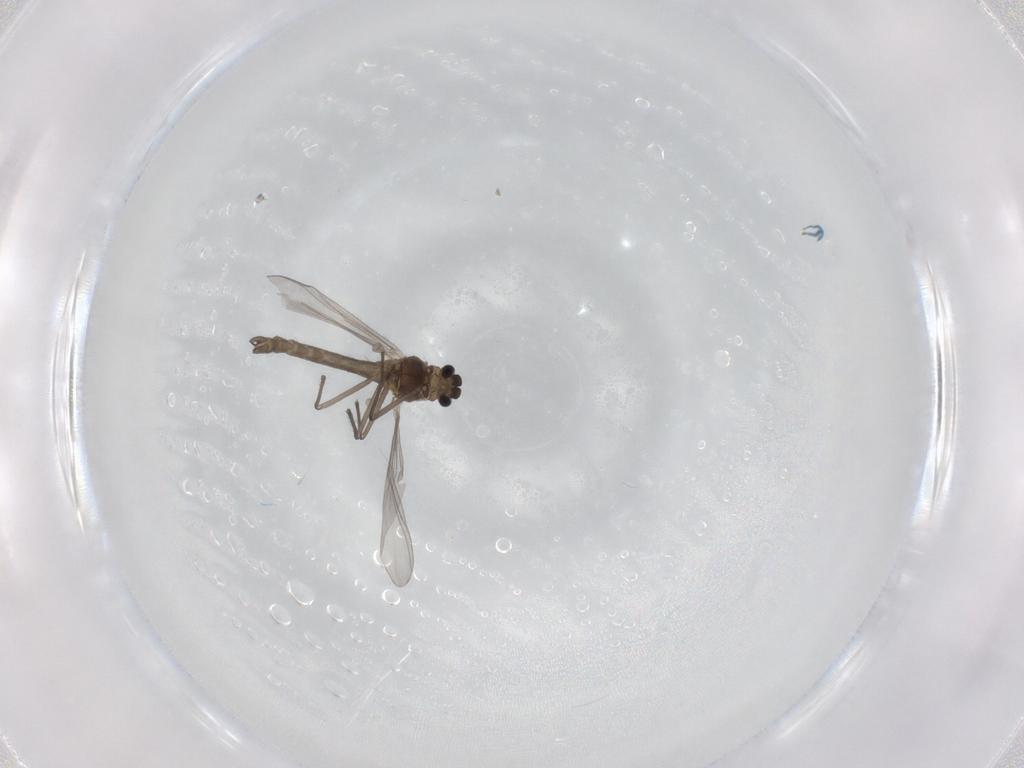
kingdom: Animalia
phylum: Arthropoda
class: Insecta
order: Diptera
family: Chironomidae
